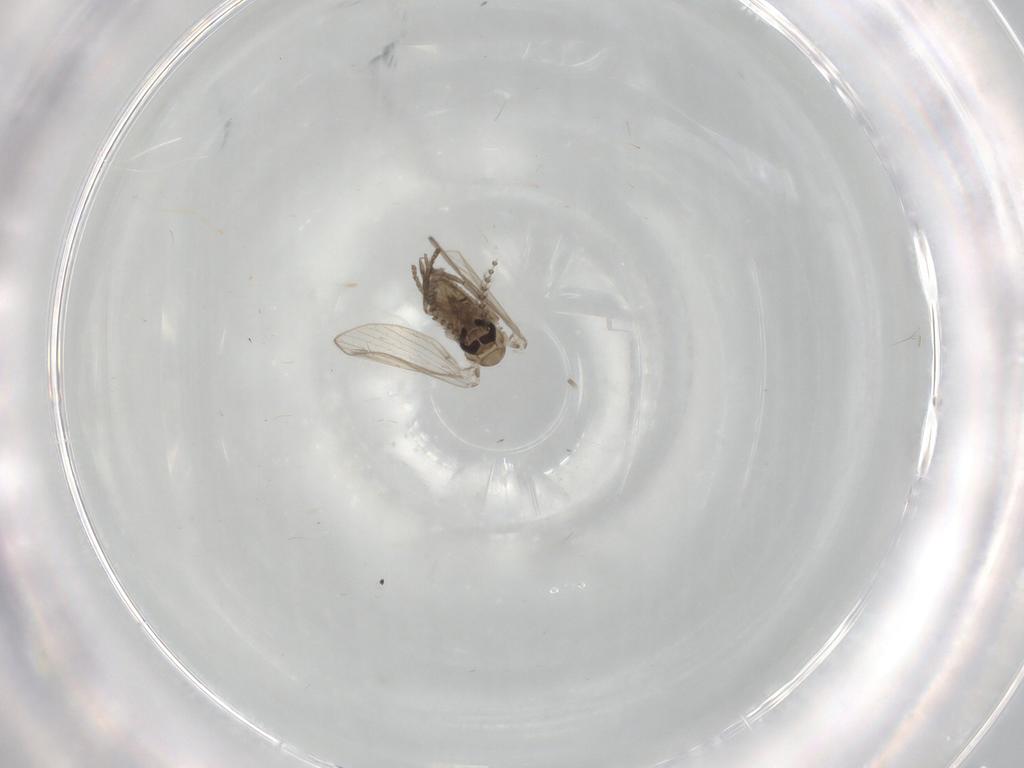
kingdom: Animalia
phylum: Arthropoda
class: Insecta
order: Diptera
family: Psychodidae
